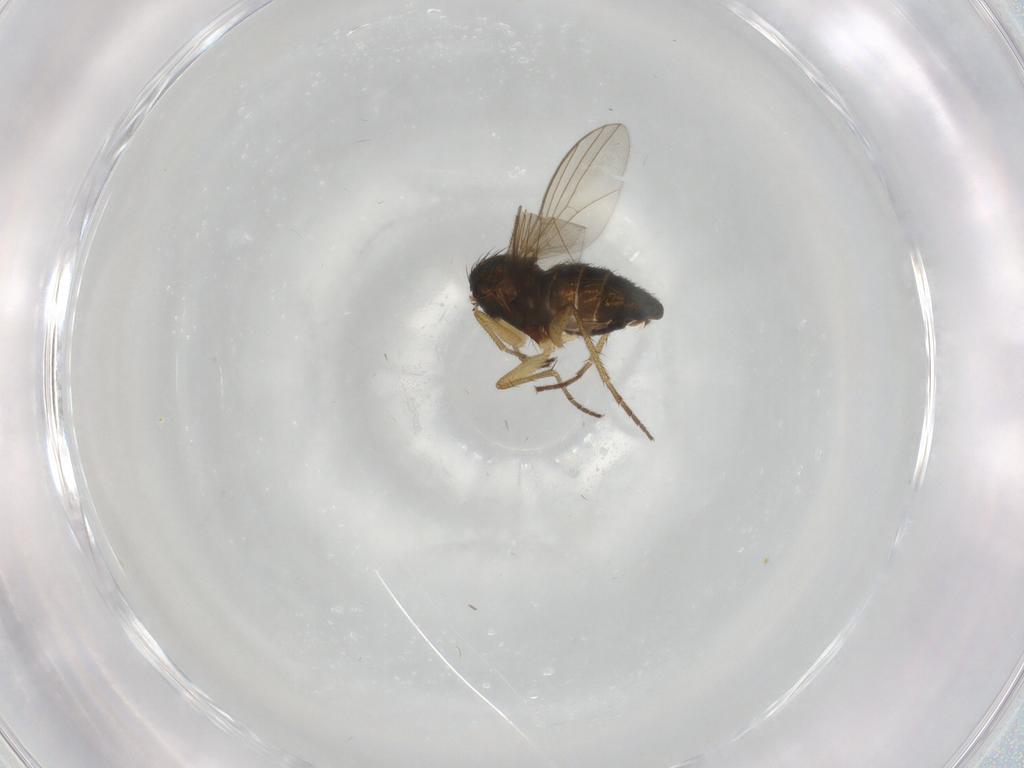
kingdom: Animalia
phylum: Arthropoda
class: Insecta
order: Diptera
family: Dolichopodidae
